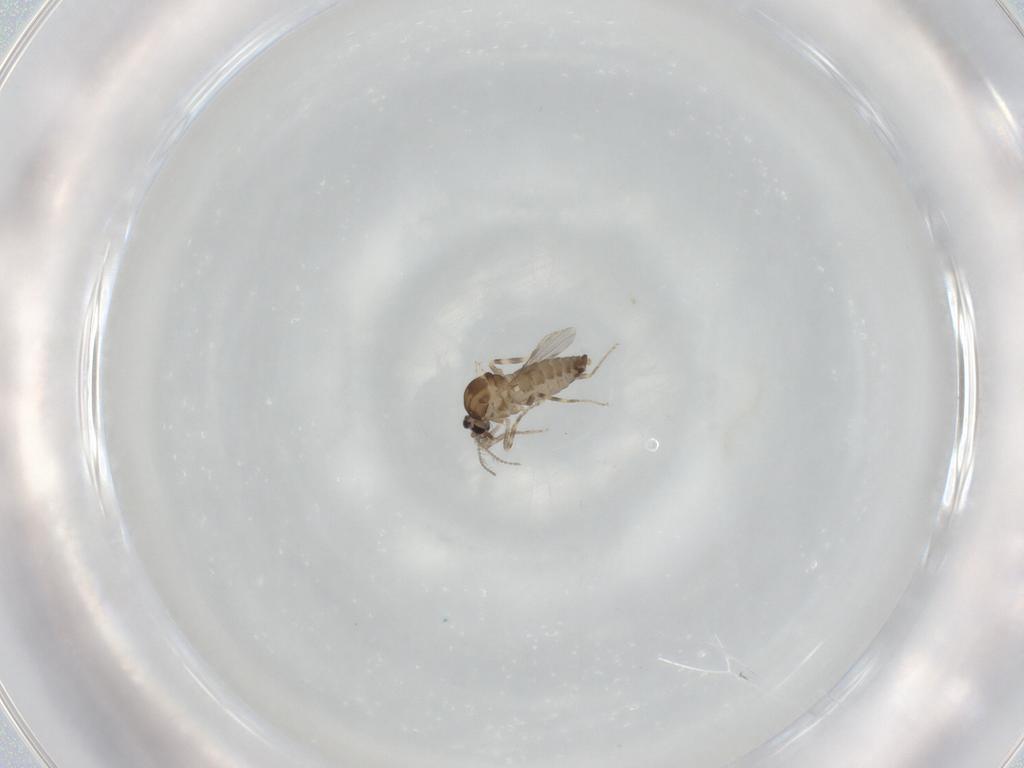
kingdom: Animalia
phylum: Arthropoda
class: Insecta
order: Diptera
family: Ceratopogonidae
